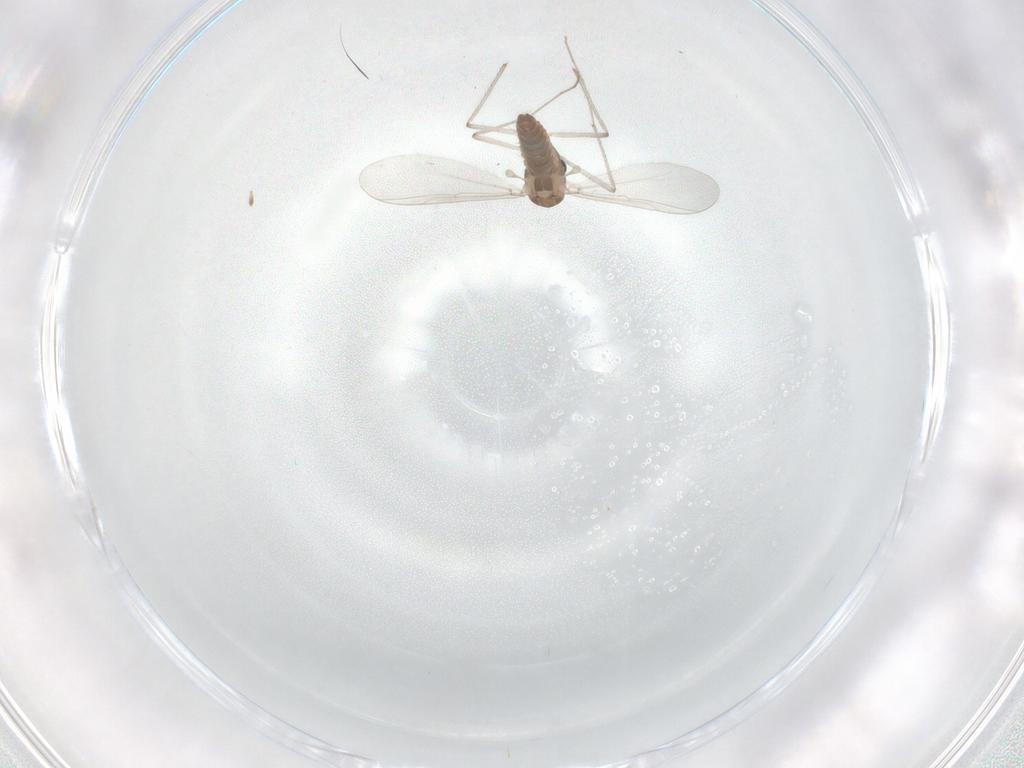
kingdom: Animalia
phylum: Arthropoda
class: Insecta
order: Diptera
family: Chironomidae
